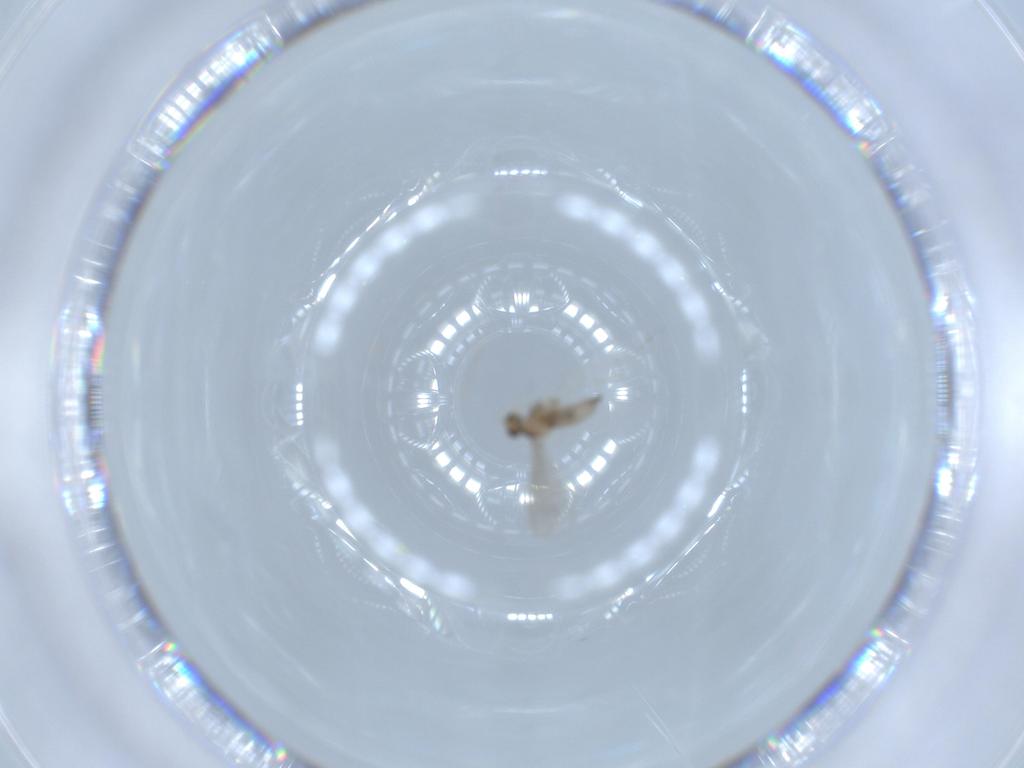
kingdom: Animalia
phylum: Arthropoda
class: Insecta
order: Diptera
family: Cecidomyiidae
